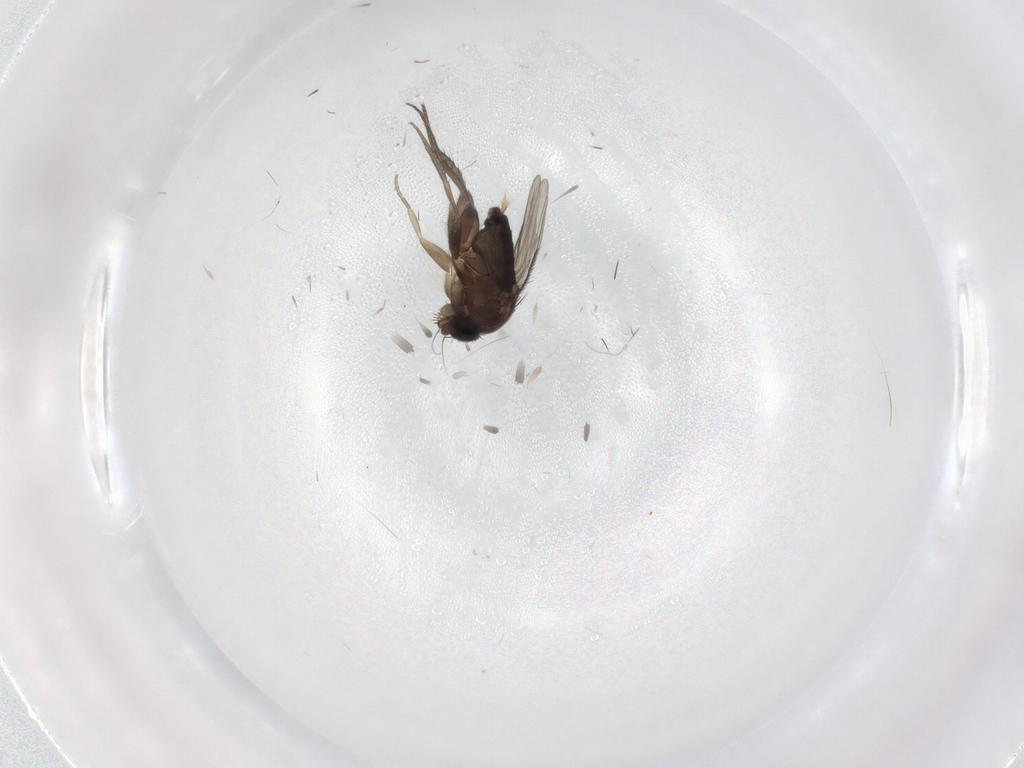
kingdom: Animalia
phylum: Arthropoda
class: Insecta
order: Diptera
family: Phoridae
